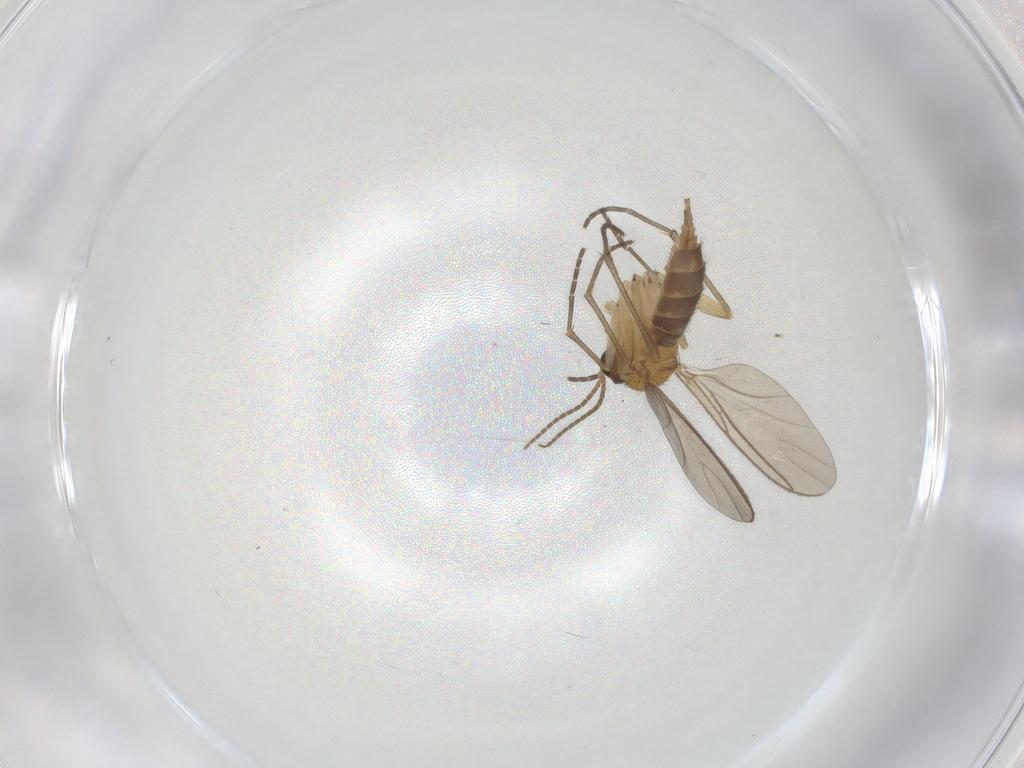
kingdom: Animalia
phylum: Arthropoda
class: Insecta
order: Diptera
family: Sciaridae
